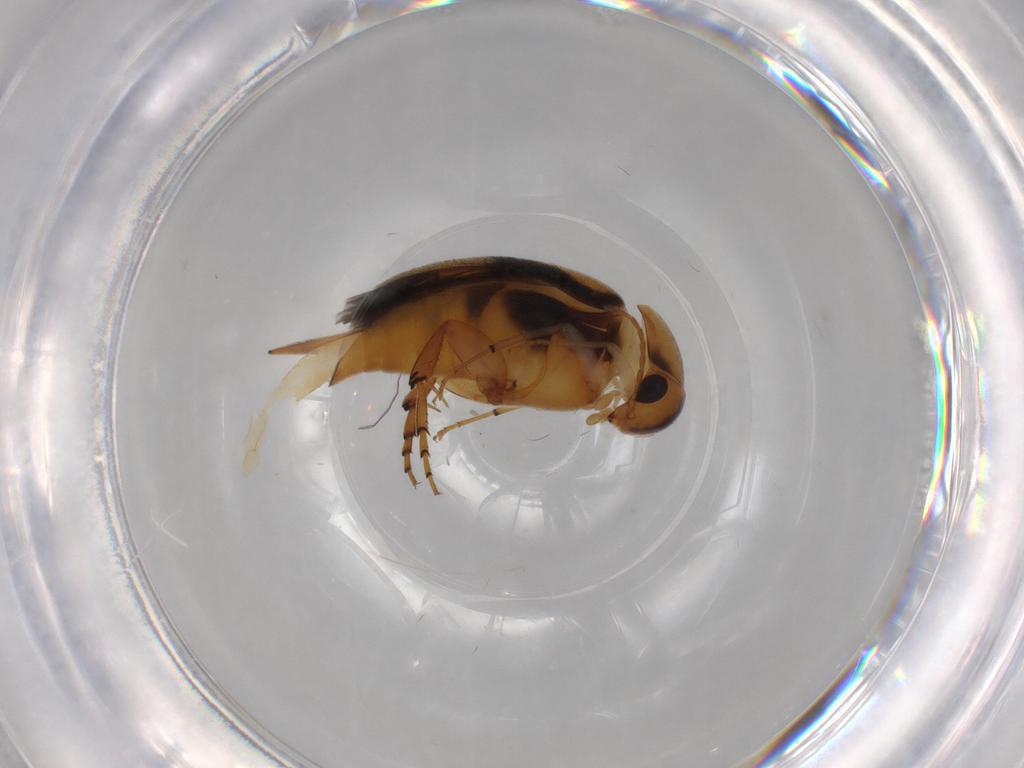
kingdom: Animalia
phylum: Arthropoda
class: Insecta
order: Coleoptera
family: Mordellidae
